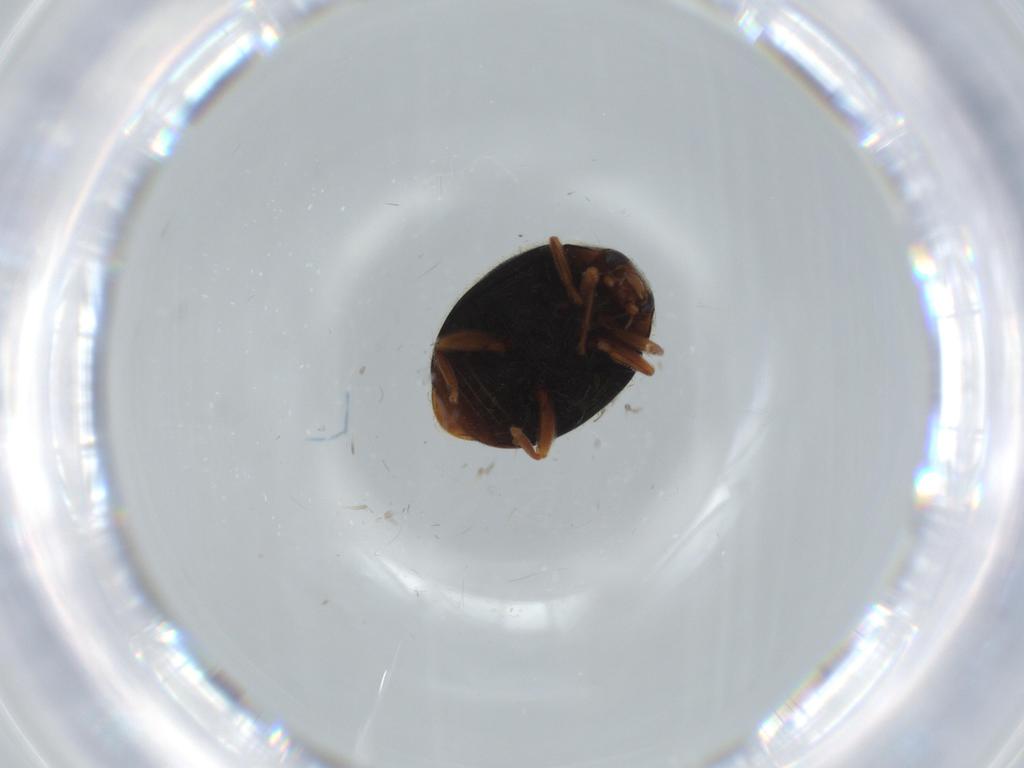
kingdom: Animalia
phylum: Arthropoda
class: Insecta
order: Coleoptera
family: Coccinellidae
